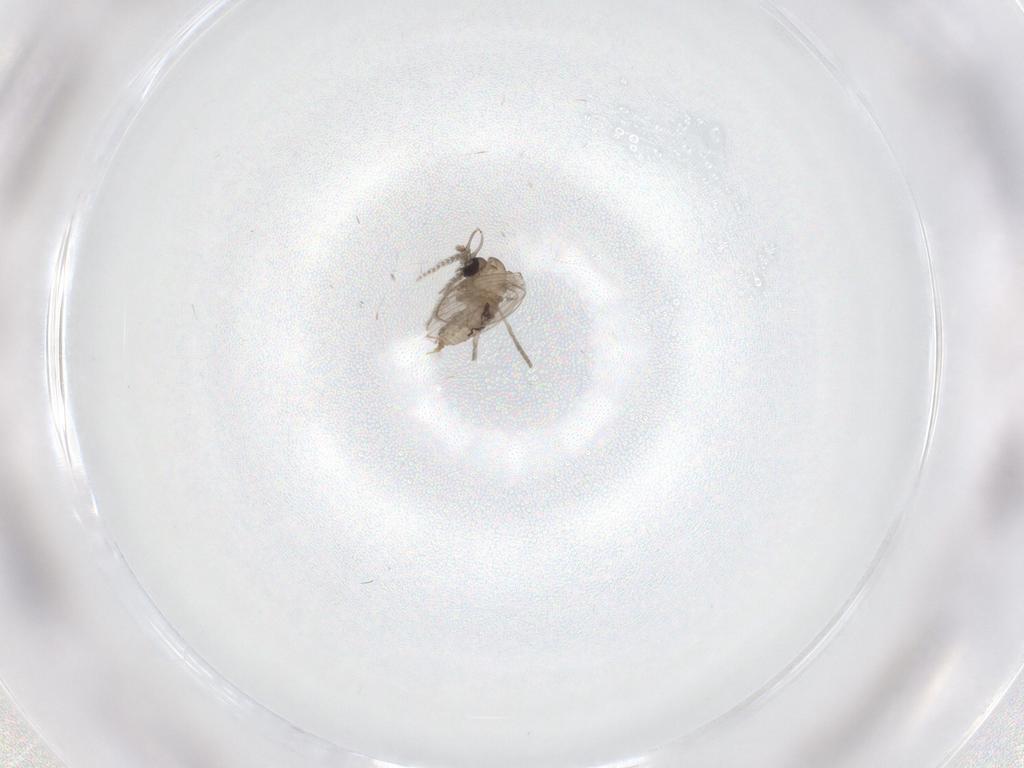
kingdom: Animalia
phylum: Arthropoda
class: Insecta
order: Diptera
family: Psychodidae
